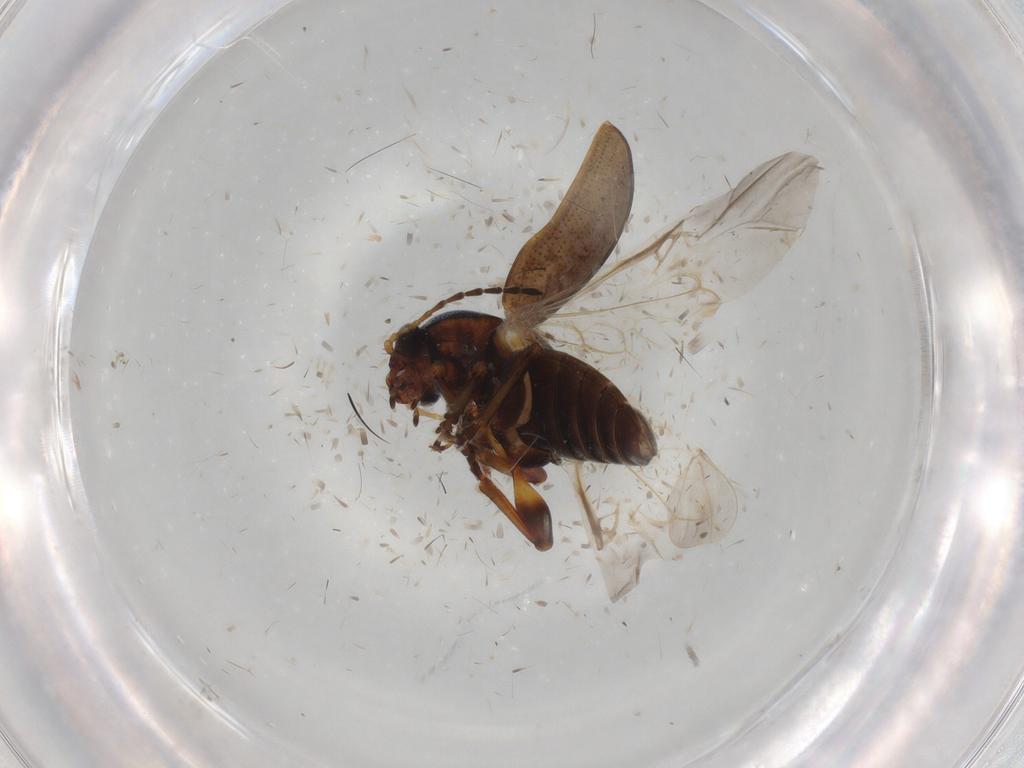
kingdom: Animalia
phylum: Arthropoda
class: Insecta
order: Coleoptera
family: Chrysomelidae
